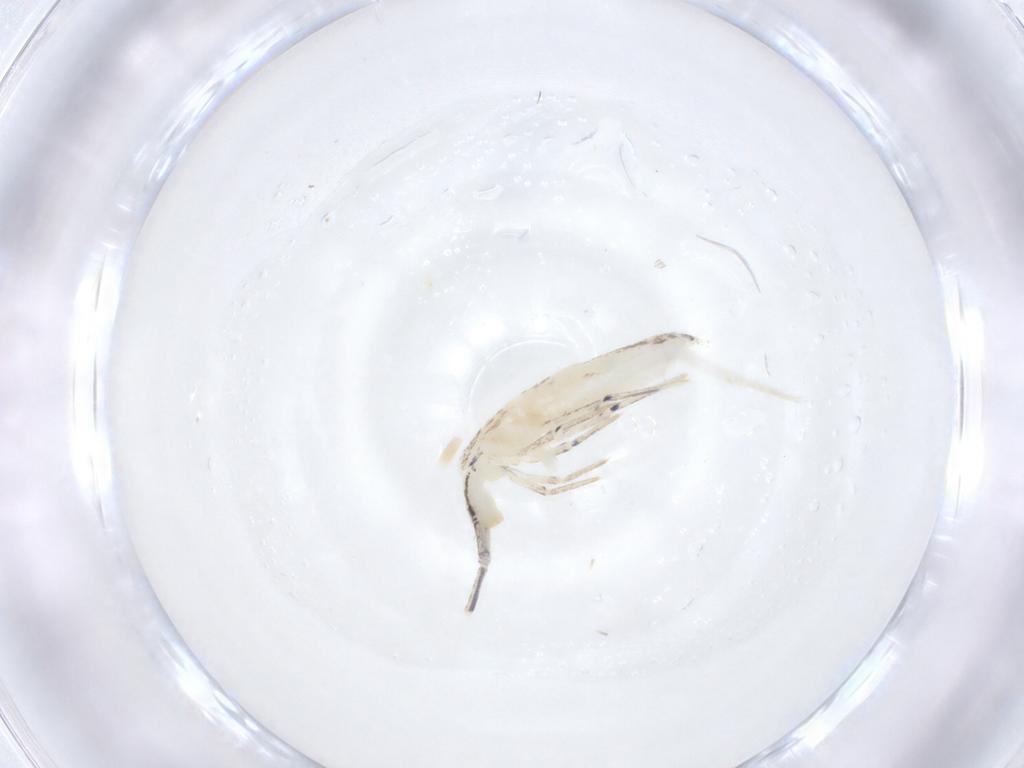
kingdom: Animalia
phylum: Arthropoda
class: Collembola
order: Entomobryomorpha
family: Entomobryidae
